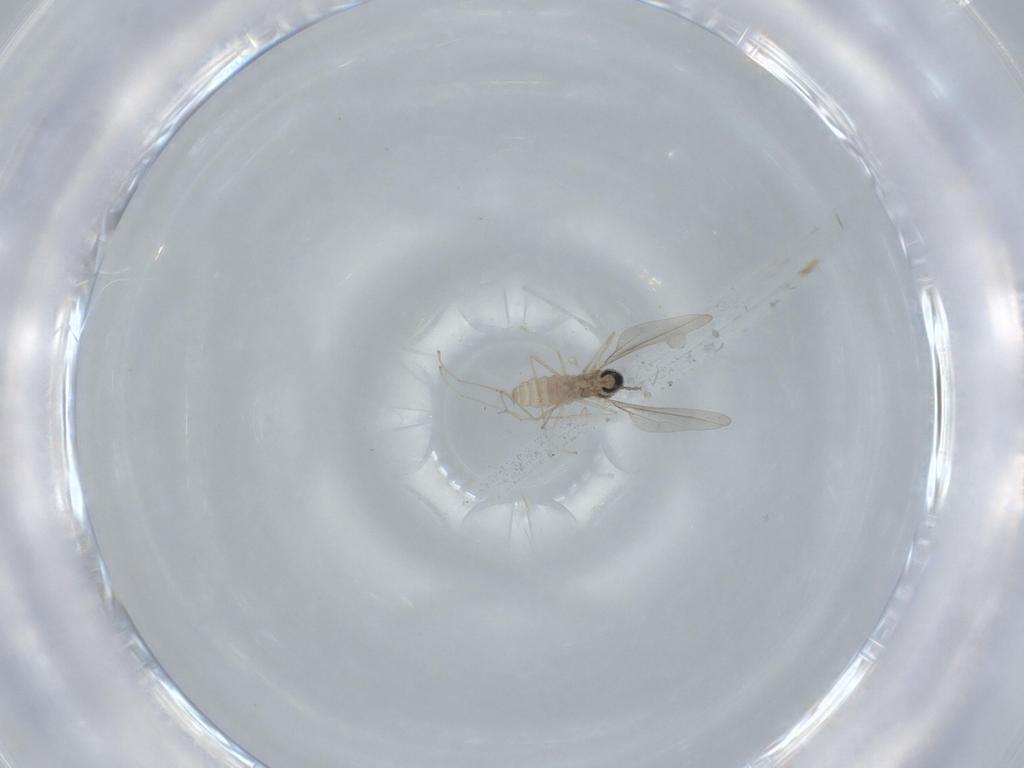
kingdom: Animalia
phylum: Arthropoda
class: Insecta
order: Diptera
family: Cecidomyiidae
